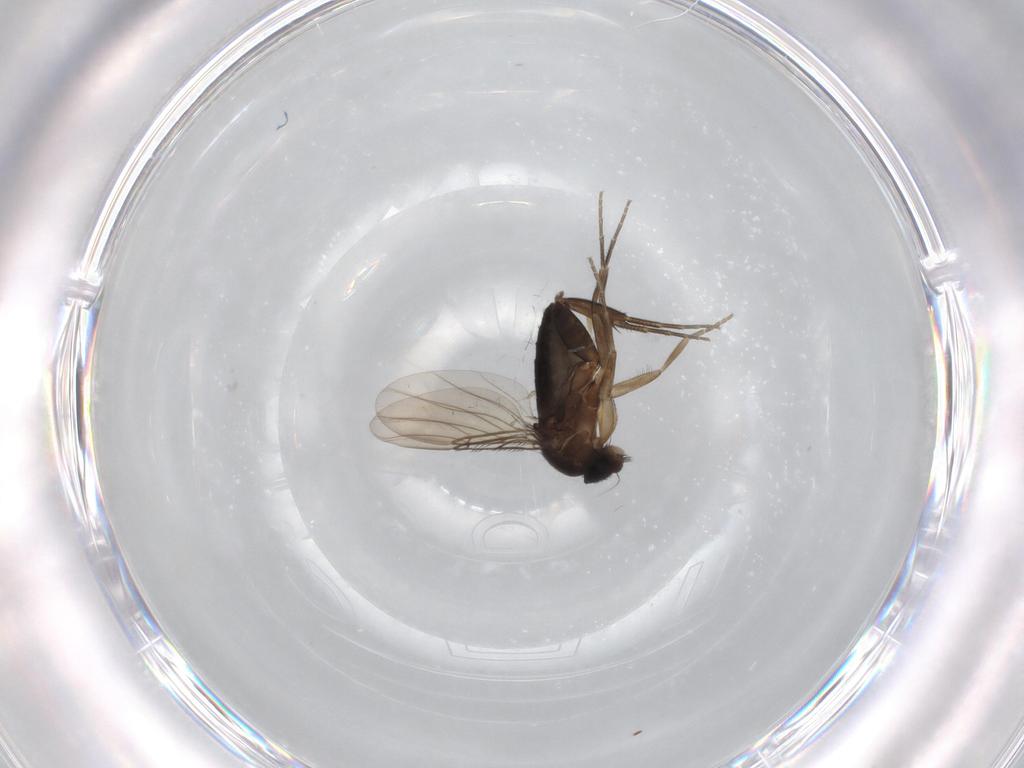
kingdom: Animalia
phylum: Arthropoda
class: Insecta
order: Diptera
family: Phoridae
